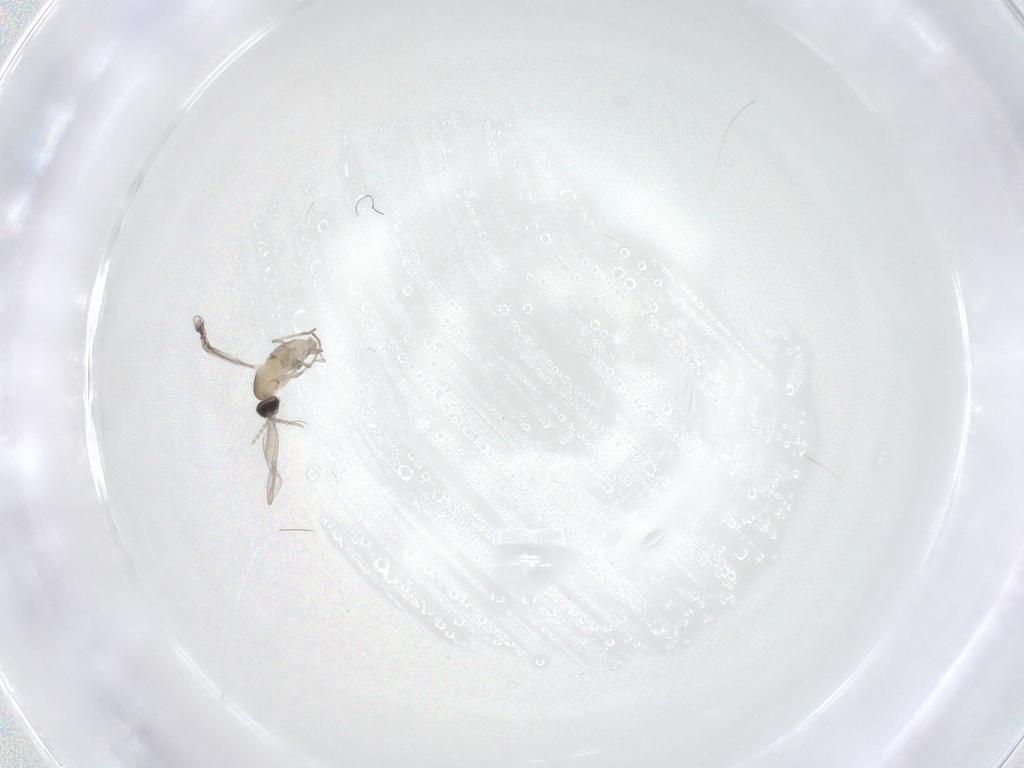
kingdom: Animalia
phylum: Arthropoda
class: Insecta
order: Diptera
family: Cecidomyiidae
